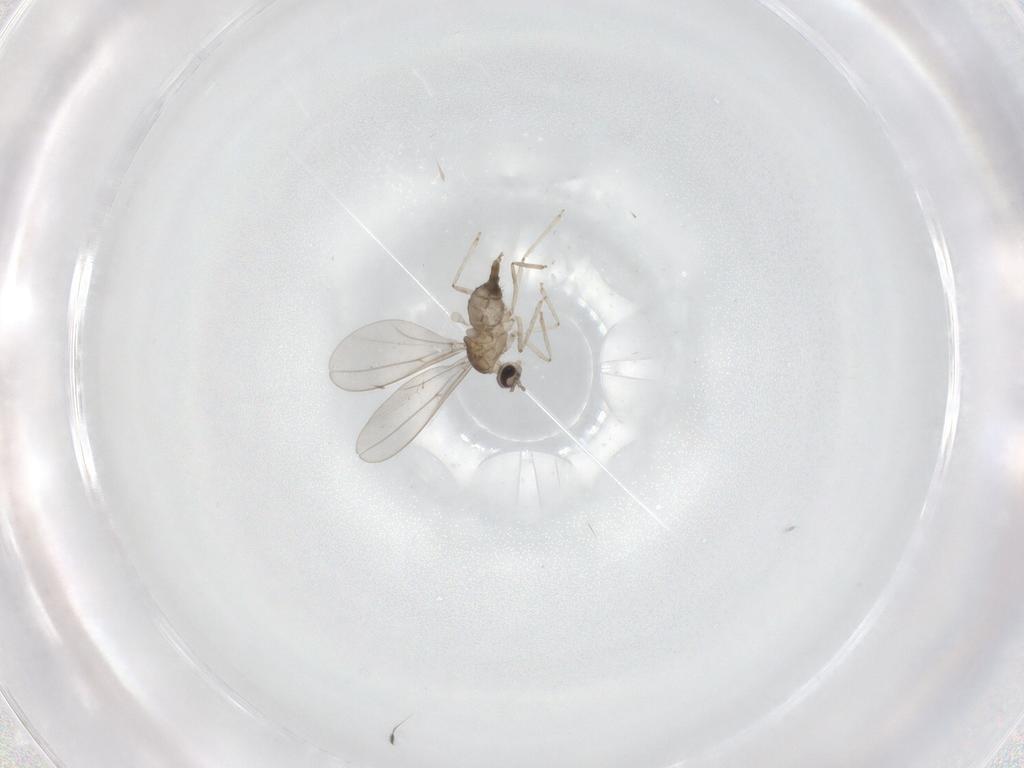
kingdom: Animalia
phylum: Arthropoda
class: Insecta
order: Diptera
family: Cecidomyiidae
